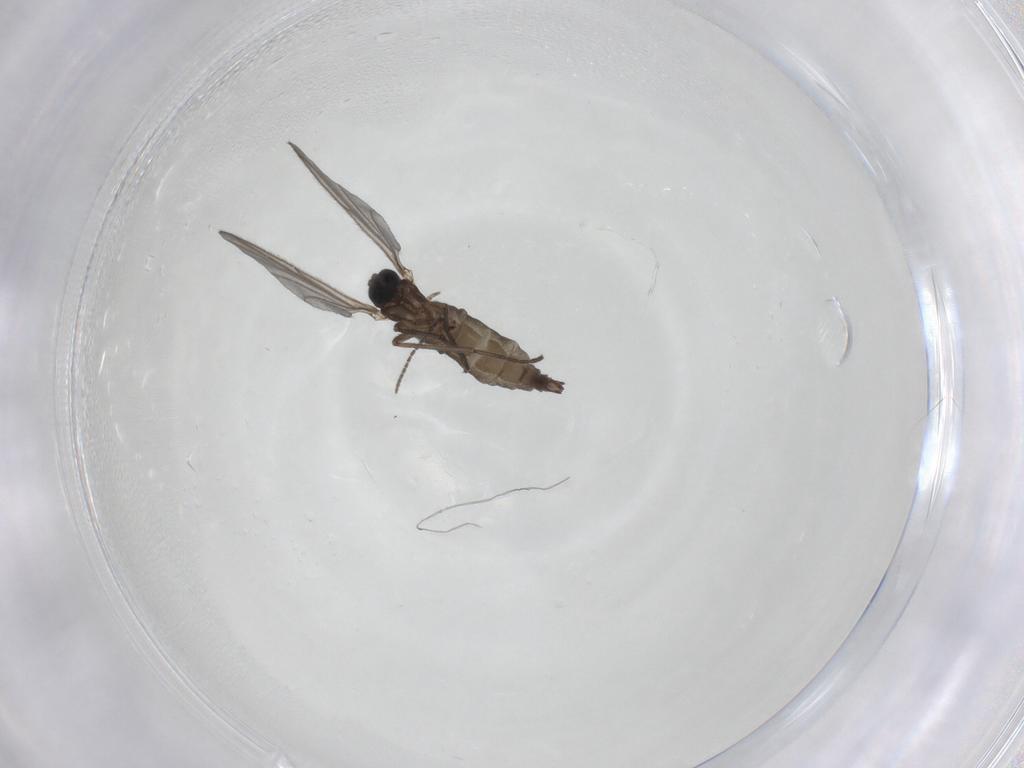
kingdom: Animalia
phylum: Arthropoda
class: Insecta
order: Diptera
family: Sciaridae
